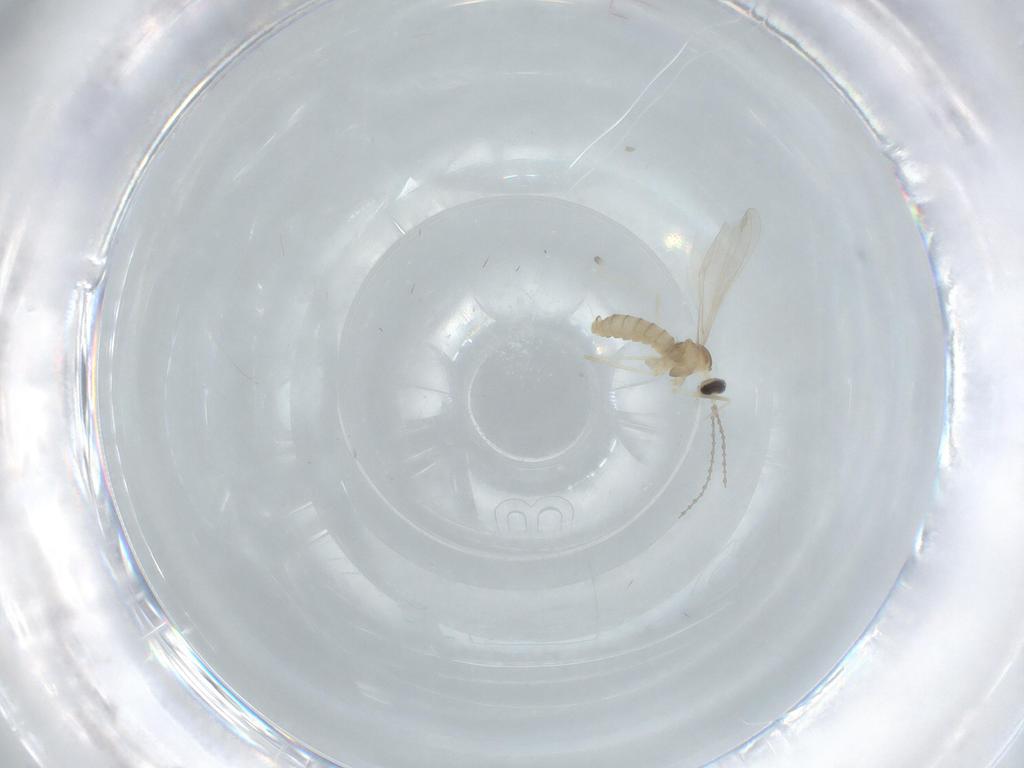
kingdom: Animalia
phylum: Arthropoda
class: Insecta
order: Diptera
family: Cecidomyiidae
